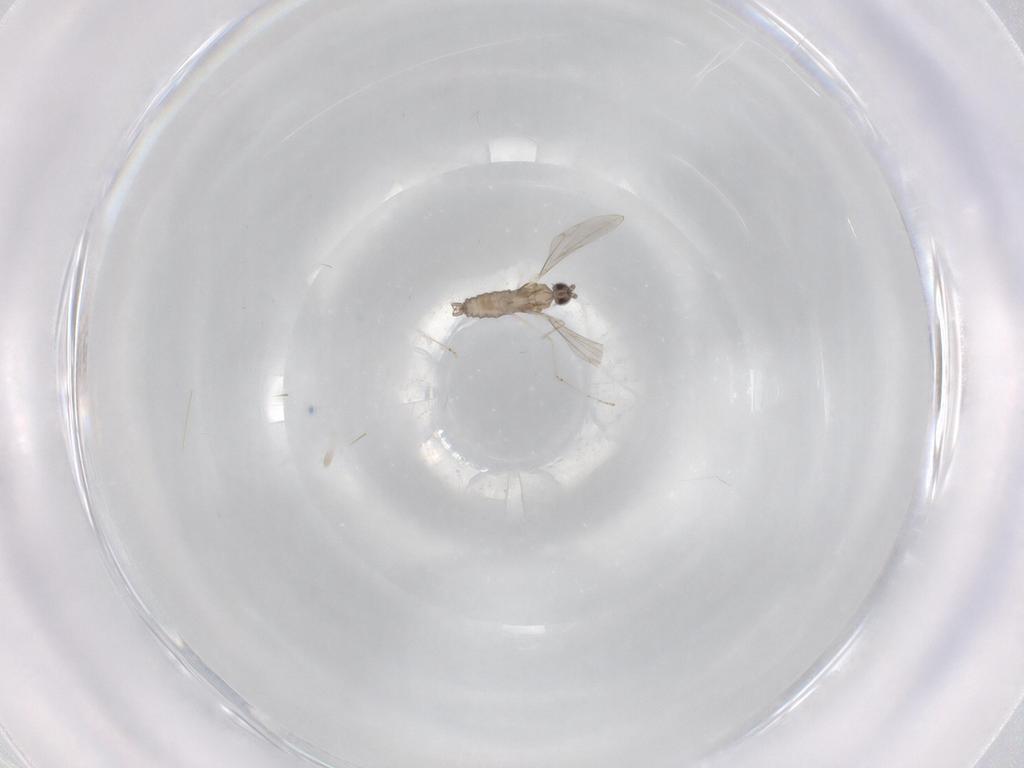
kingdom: Animalia
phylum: Arthropoda
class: Insecta
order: Diptera
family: Cecidomyiidae
